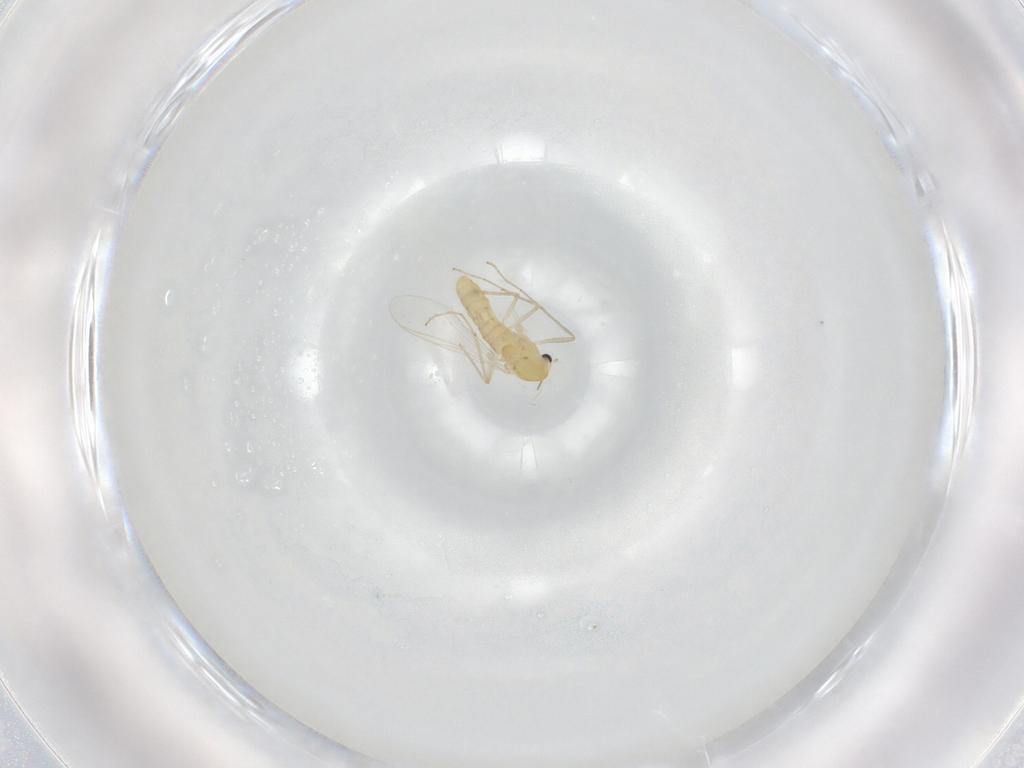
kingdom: Animalia
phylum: Arthropoda
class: Insecta
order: Diptera
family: Chironomidae
